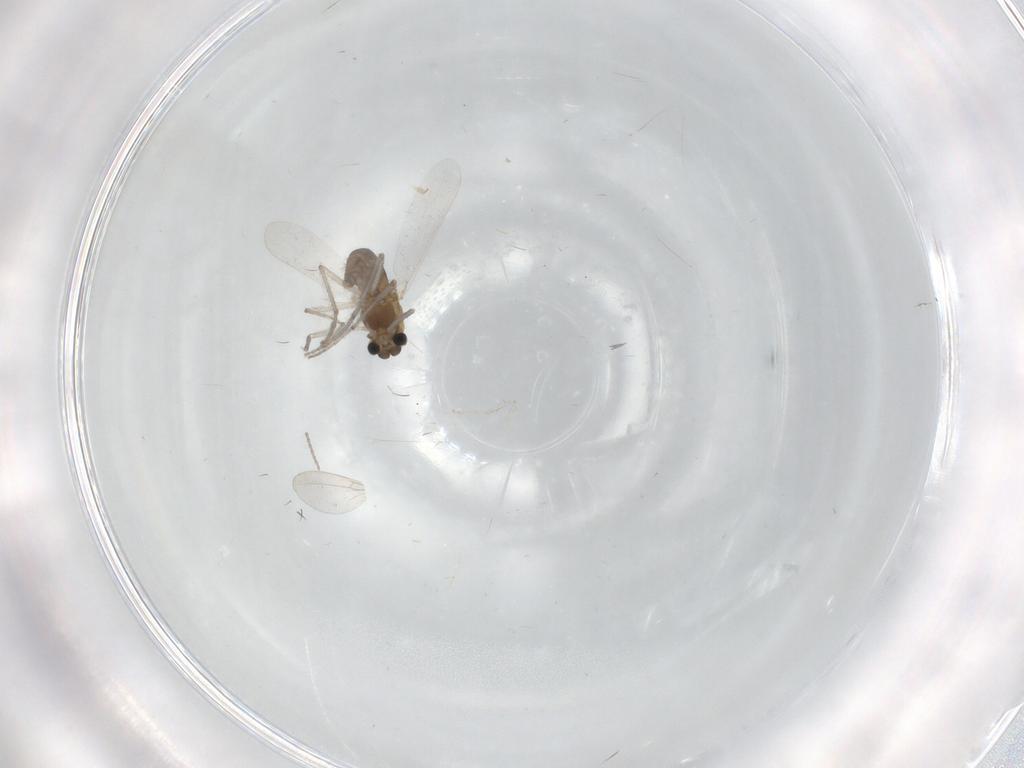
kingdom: Animalia
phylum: Arthropoda
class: Insecta
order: Diptera
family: Chironomidae
